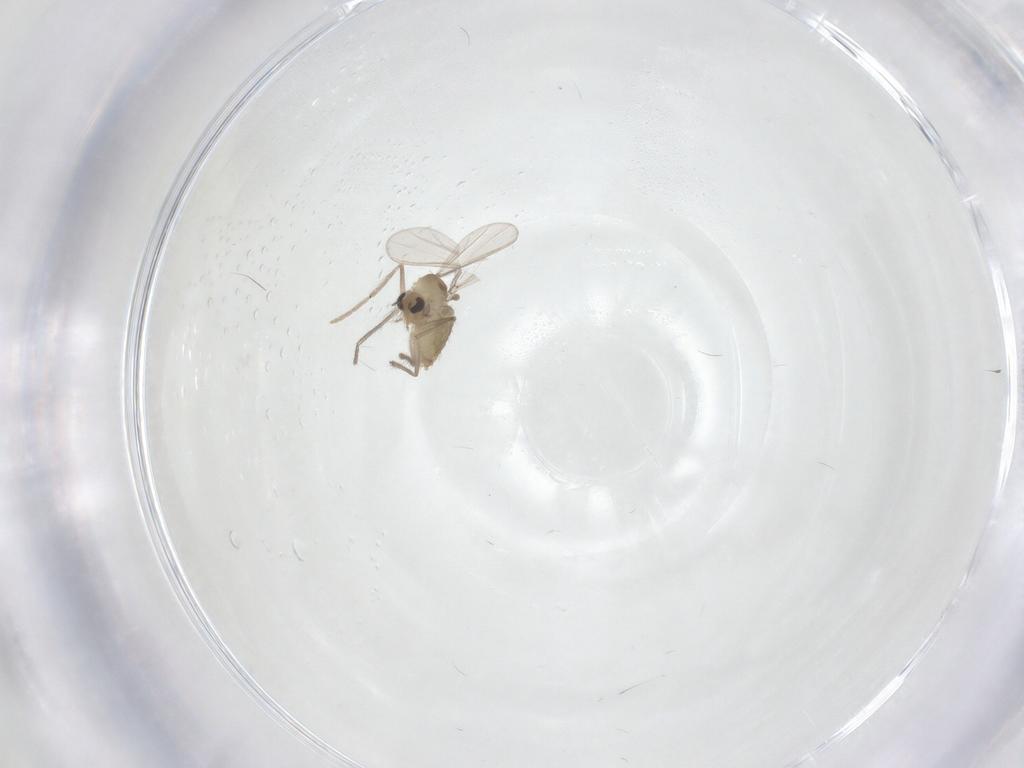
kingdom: Animalia
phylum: Arthropoda
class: Insecta
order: Diptera
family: Chironomidae
